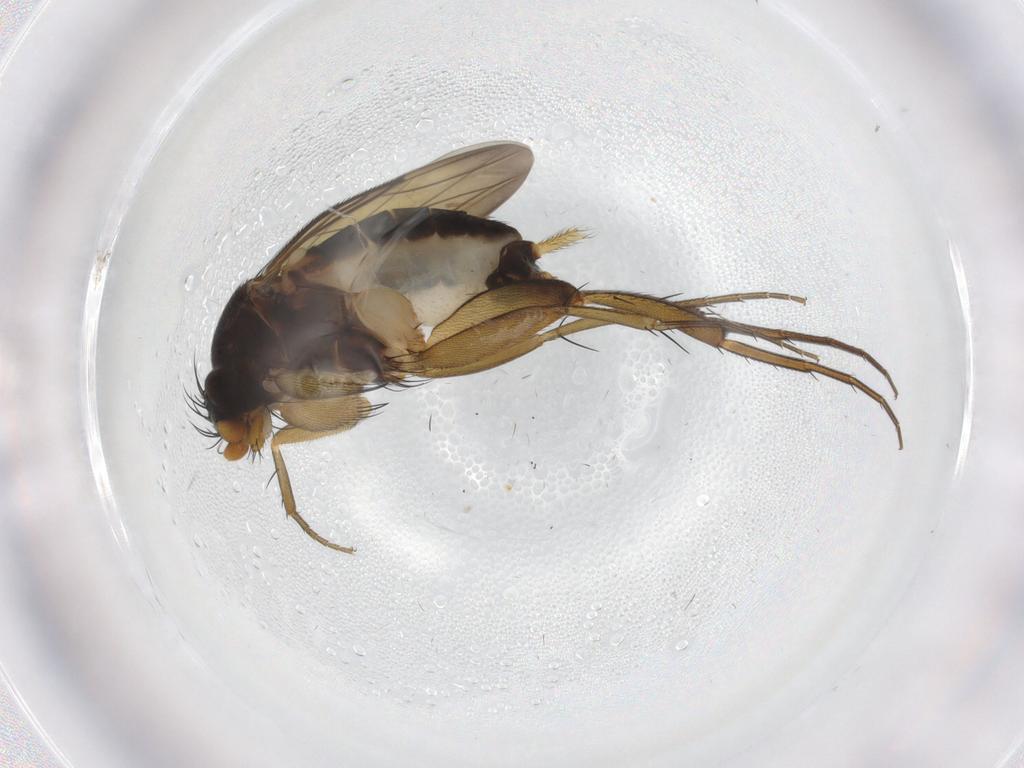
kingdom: Animalia
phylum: Arthropoda
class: Insecta
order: Diptera
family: Phoridae
